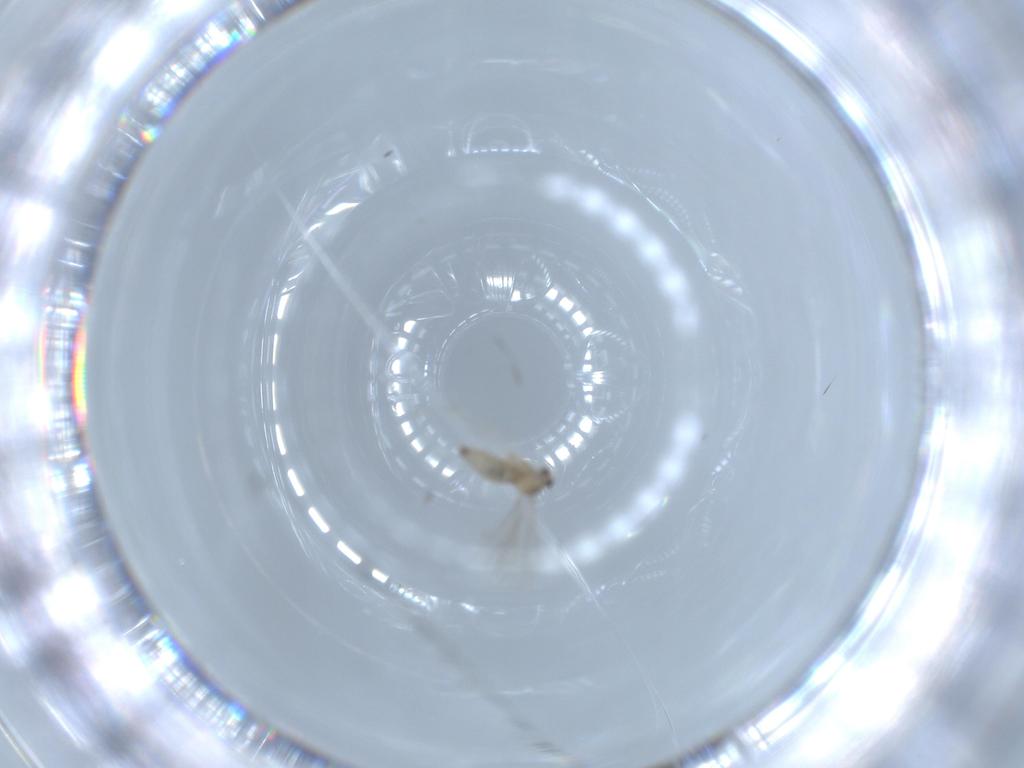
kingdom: Animalia
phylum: Arthropoda
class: Insecta
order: Diptera
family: Cecidomyiidae
